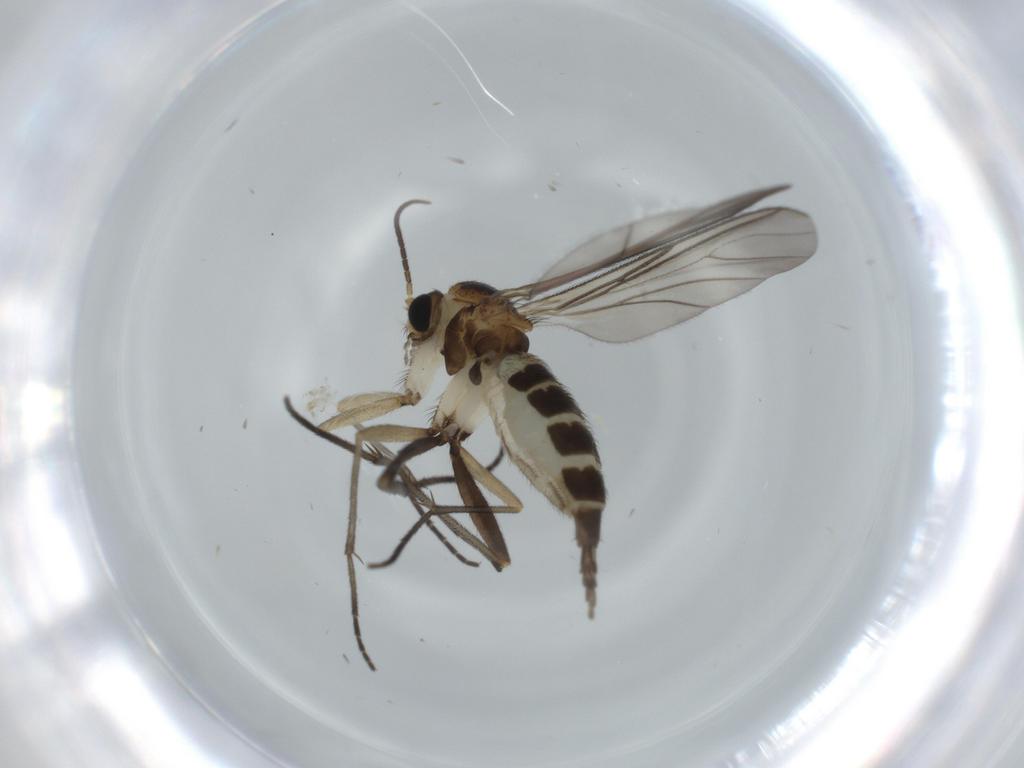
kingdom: Animalia
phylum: Arthropoda
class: Insecta
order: Diptera
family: Sciaridae
